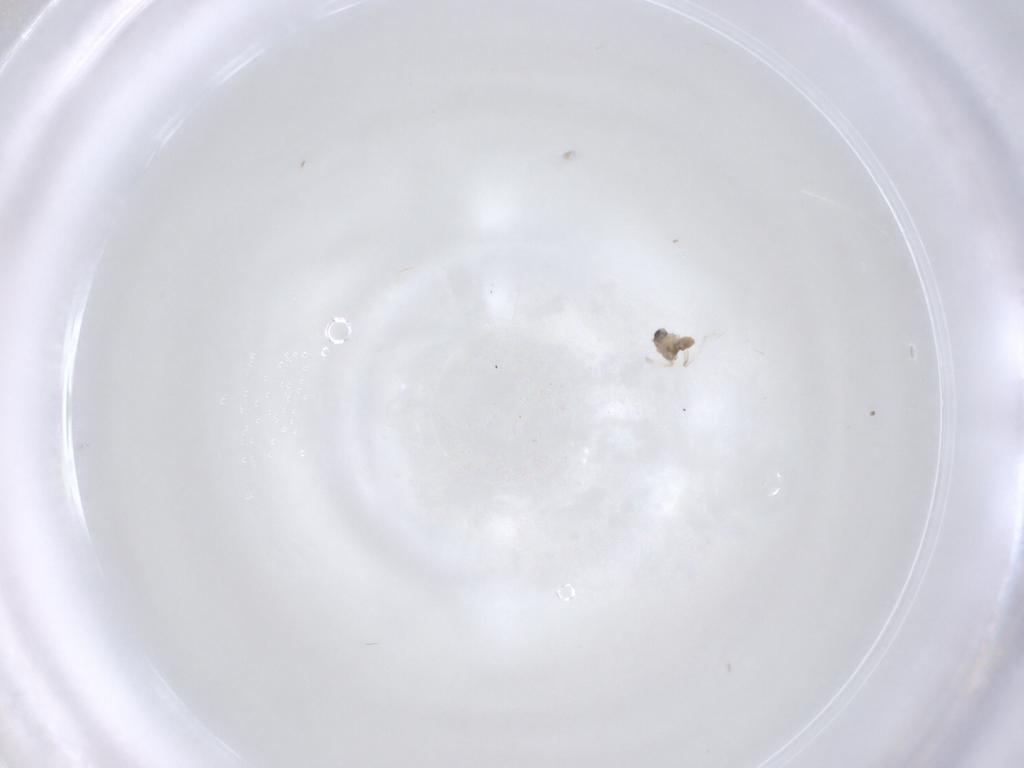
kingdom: Animalia
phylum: Arthropoda
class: Insecta
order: Diptera
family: Cecidomyiidae
